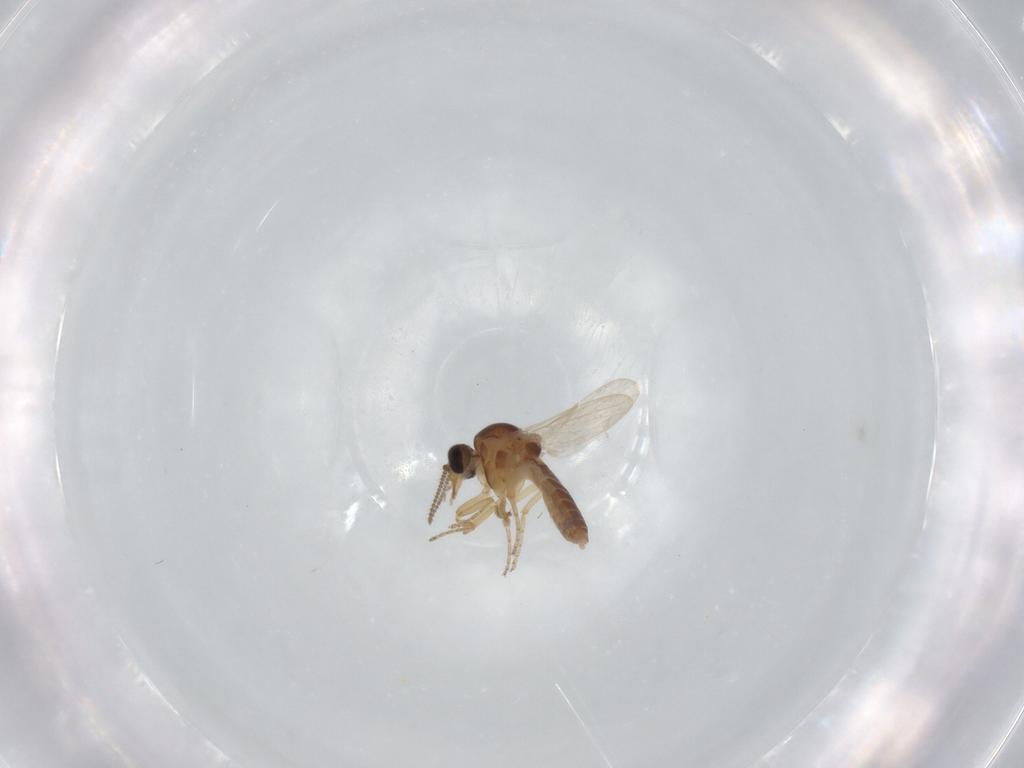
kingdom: Animalia
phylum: Arthropoda
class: Insecta
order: Diptera
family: Ceratopogonidae
